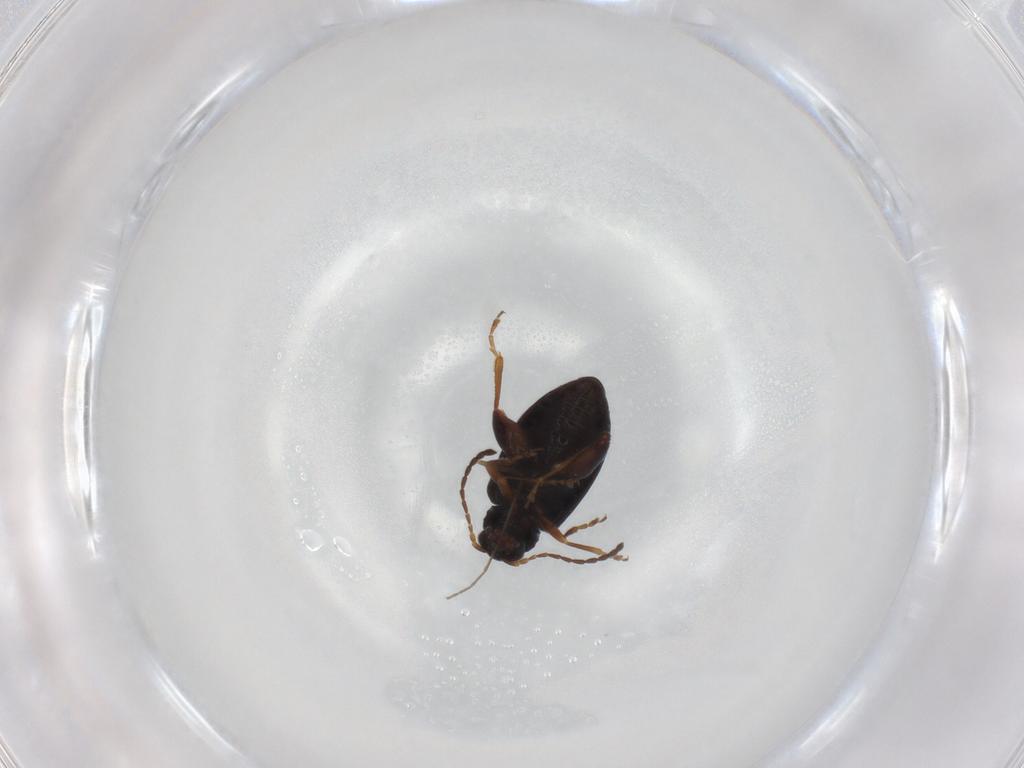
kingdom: Animalia
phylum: Arthropoda
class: Insecta
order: Coleoptera
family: Chrysomelidae
